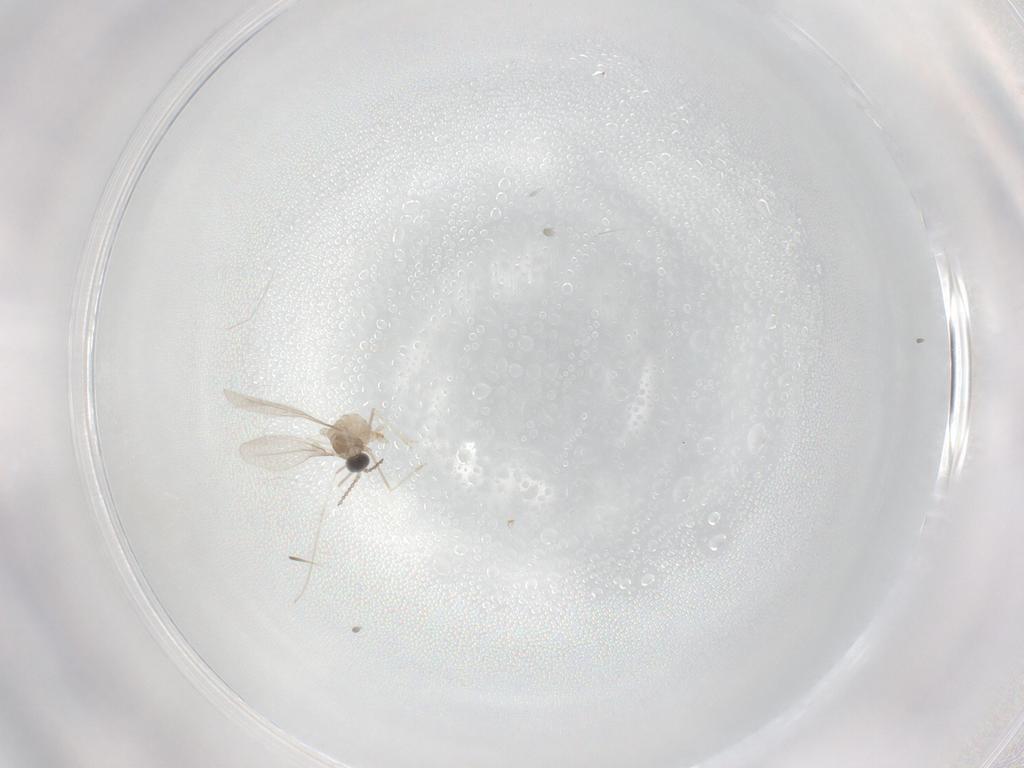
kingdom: Animalia
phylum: Arthropoda
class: Insecta
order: Diptera
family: Cecidomyiidae
